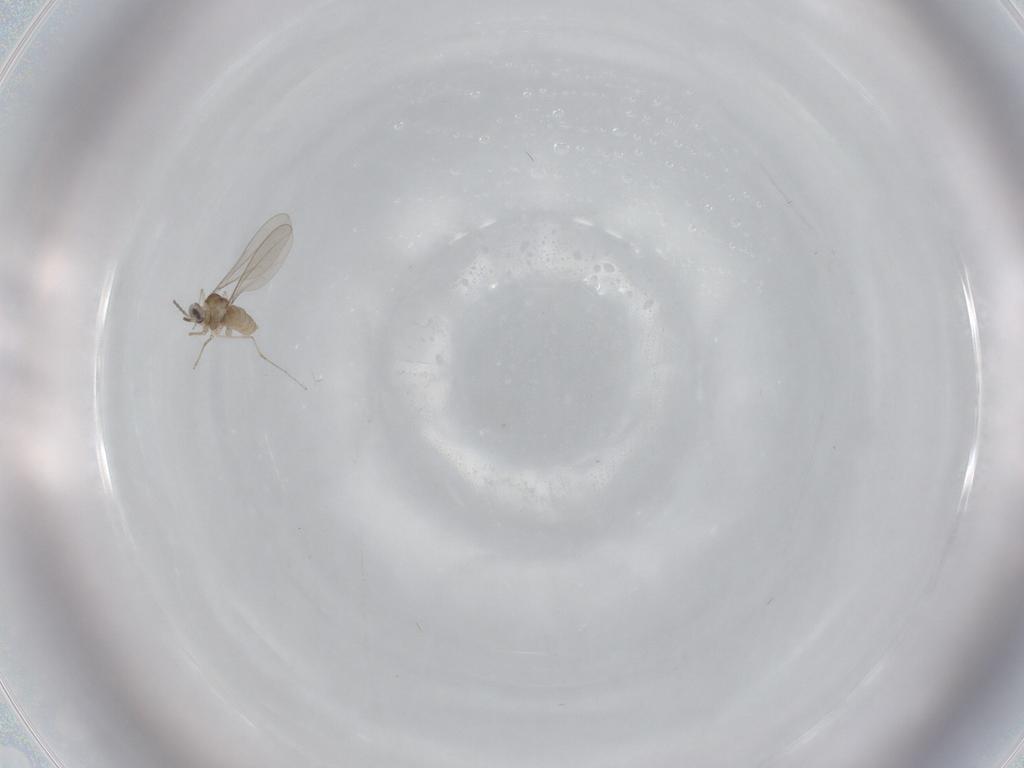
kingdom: Animalia
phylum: Arthropoda
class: Insecta
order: Diptera
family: Cecidomyiidae
